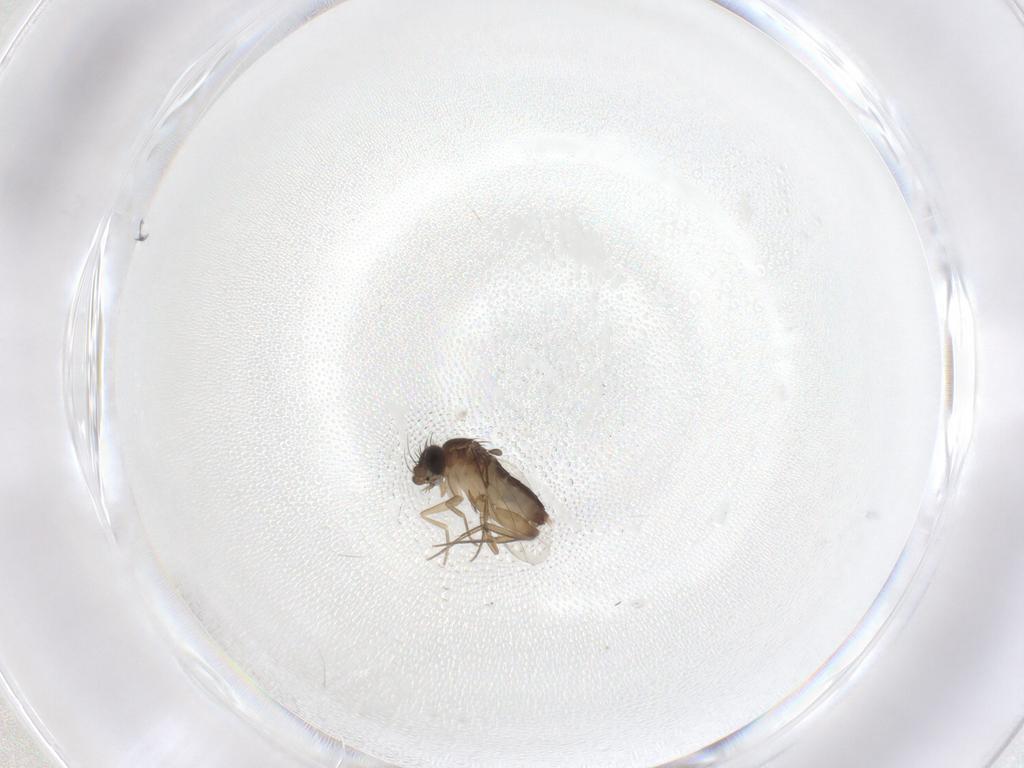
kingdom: Animalia
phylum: Arthropoda
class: Insecta
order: Diptera
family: Phoridae
